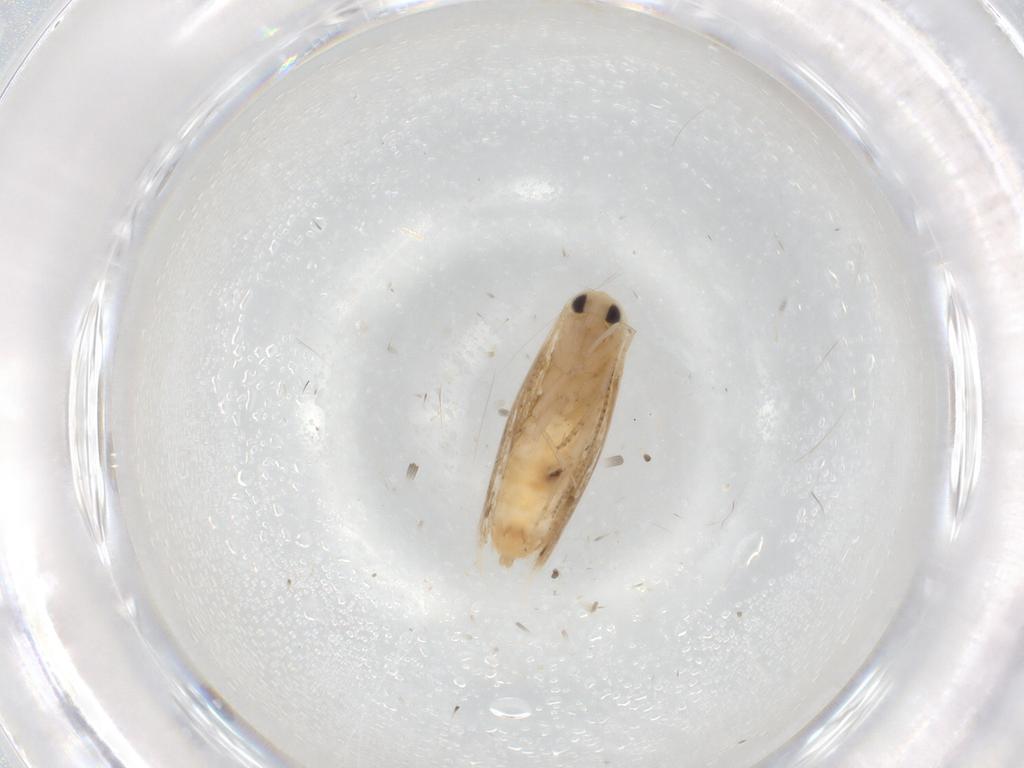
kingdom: Animalia
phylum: Arthropoda
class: Insecta
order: Lepidoptera
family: Bucculatricidae
